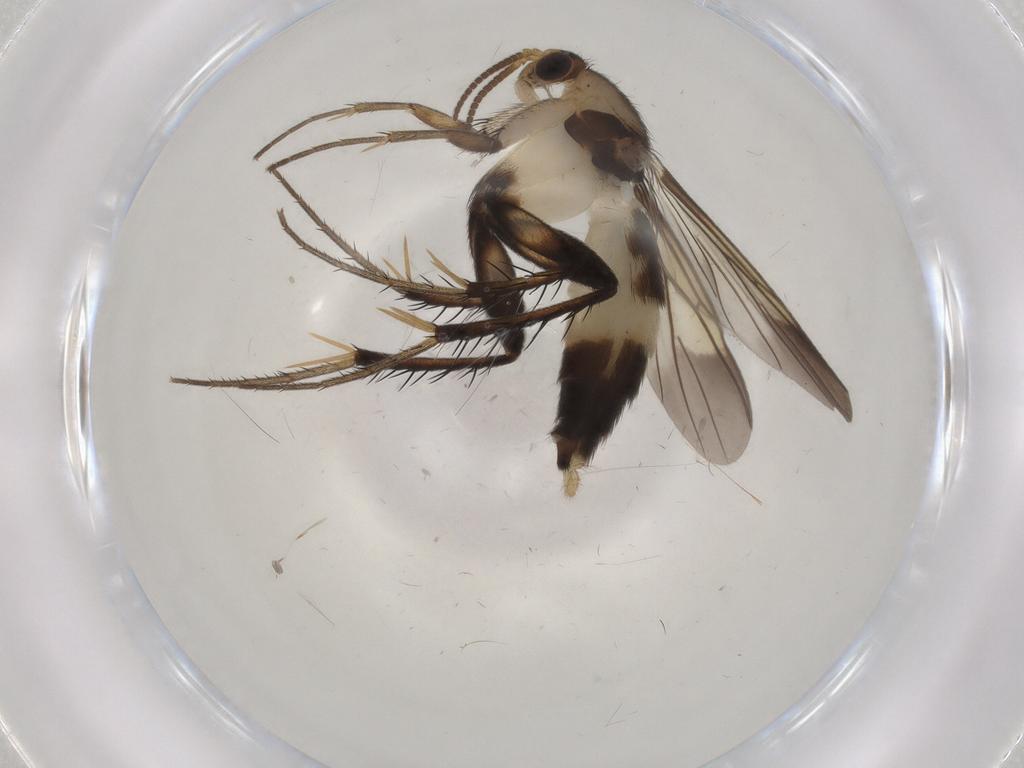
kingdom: Animalia
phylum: Arthropoda
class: Insecta
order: Diptera
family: Mycetophilidae
